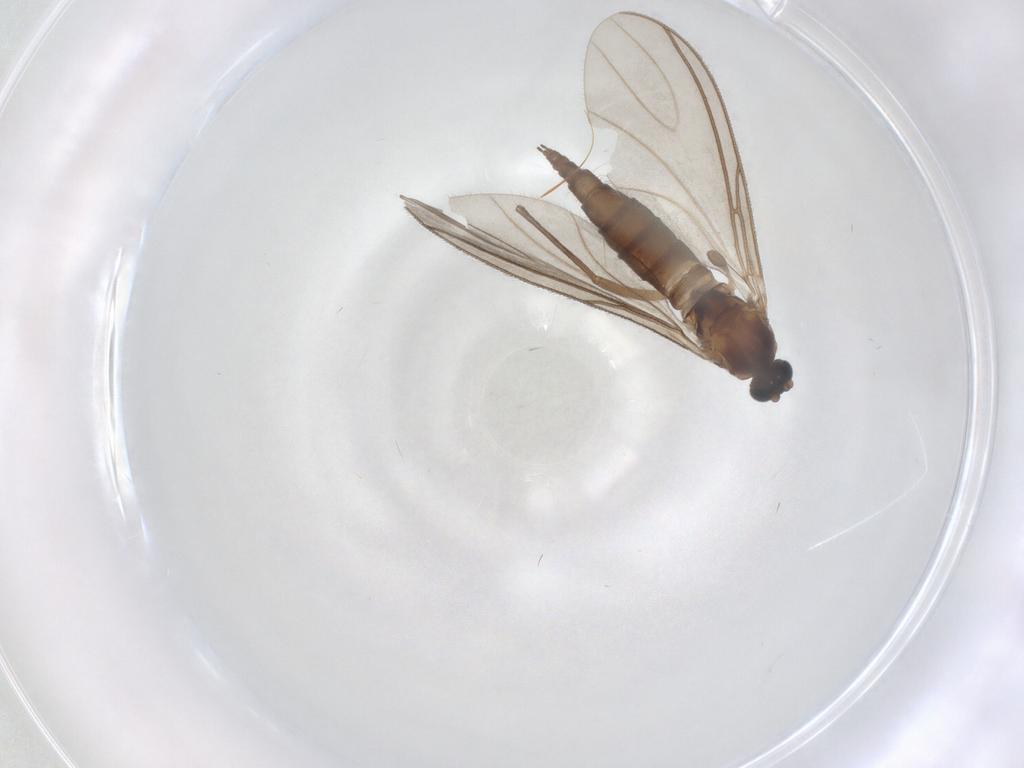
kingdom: Animalia
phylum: Arthropoda
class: Insecta
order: Diptera
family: Sciaridae
